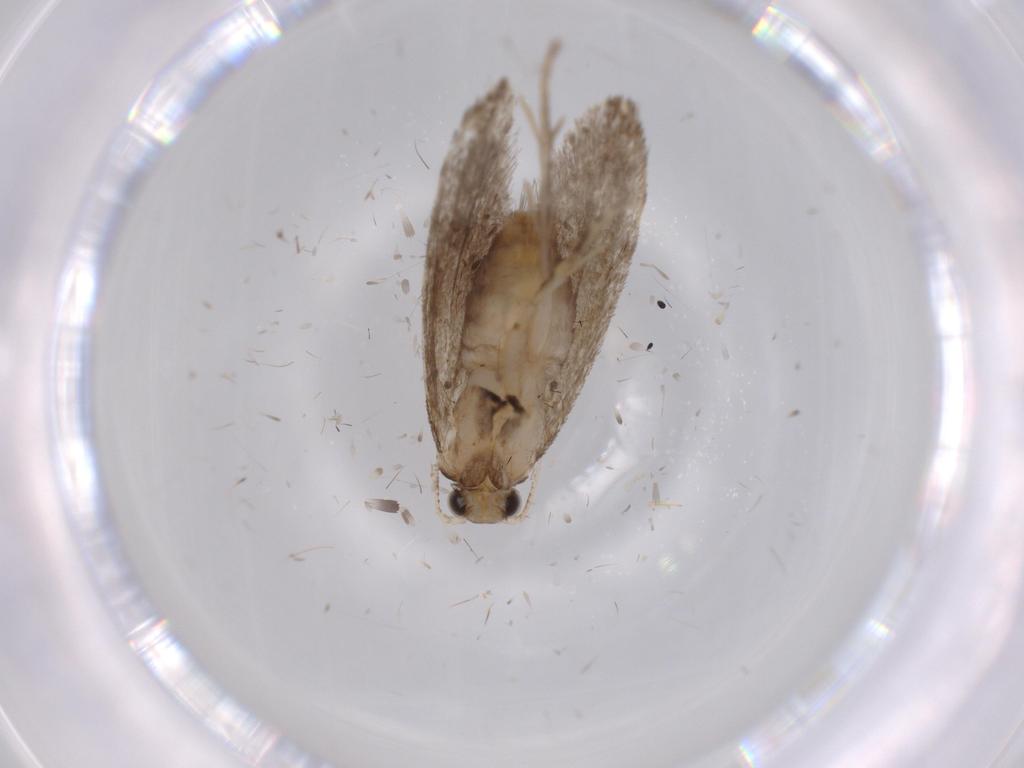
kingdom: Animalia
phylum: Arthropoda
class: Insecta
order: Lepidoptera
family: Tineidae
